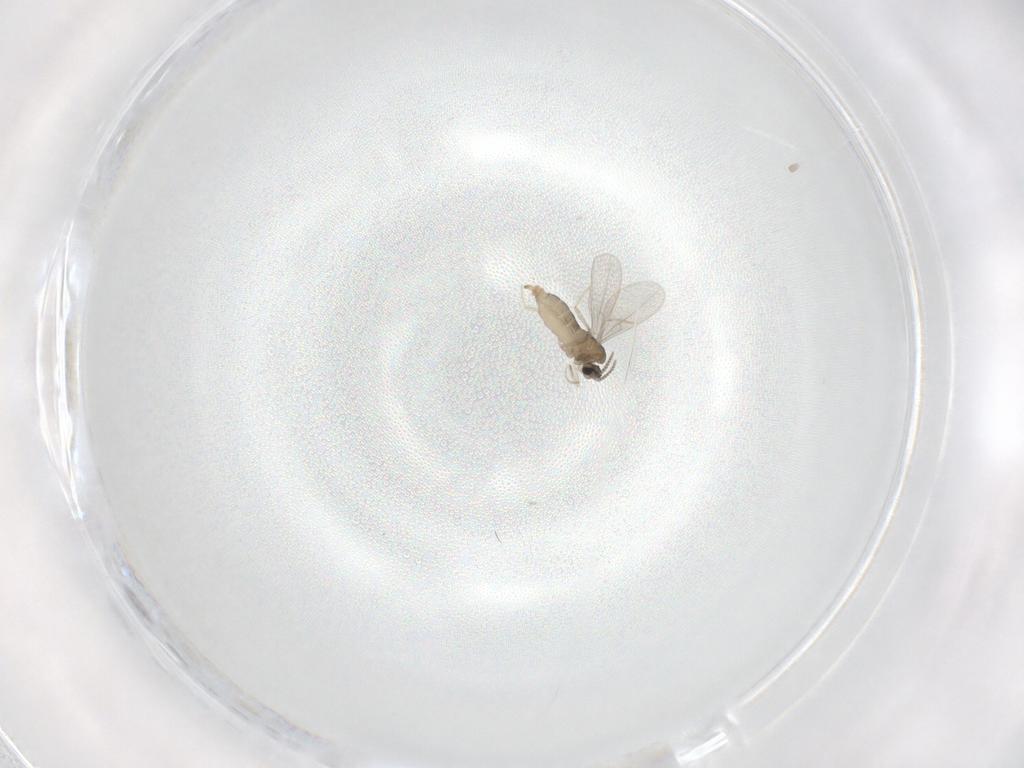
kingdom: Animalia
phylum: Arthropoda
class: Insecta
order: Diptera
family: Cecidomyiidae
